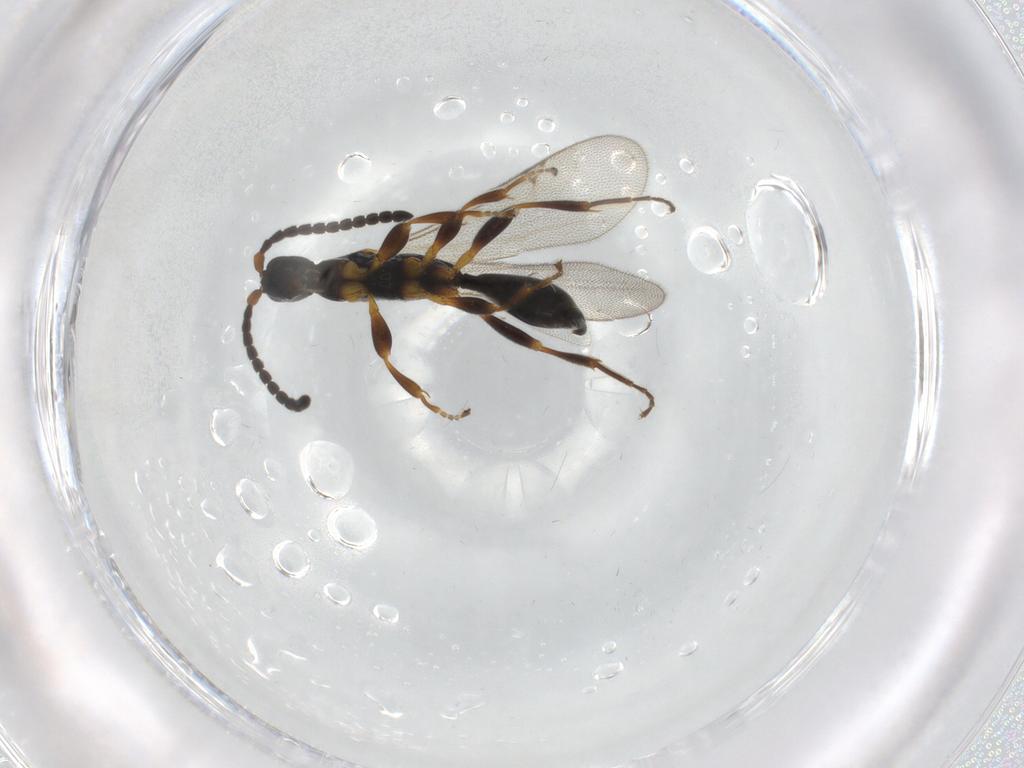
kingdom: Animalia
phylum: Arthropoda
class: Insecta
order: Hymenoptera
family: Proctotrupidae
